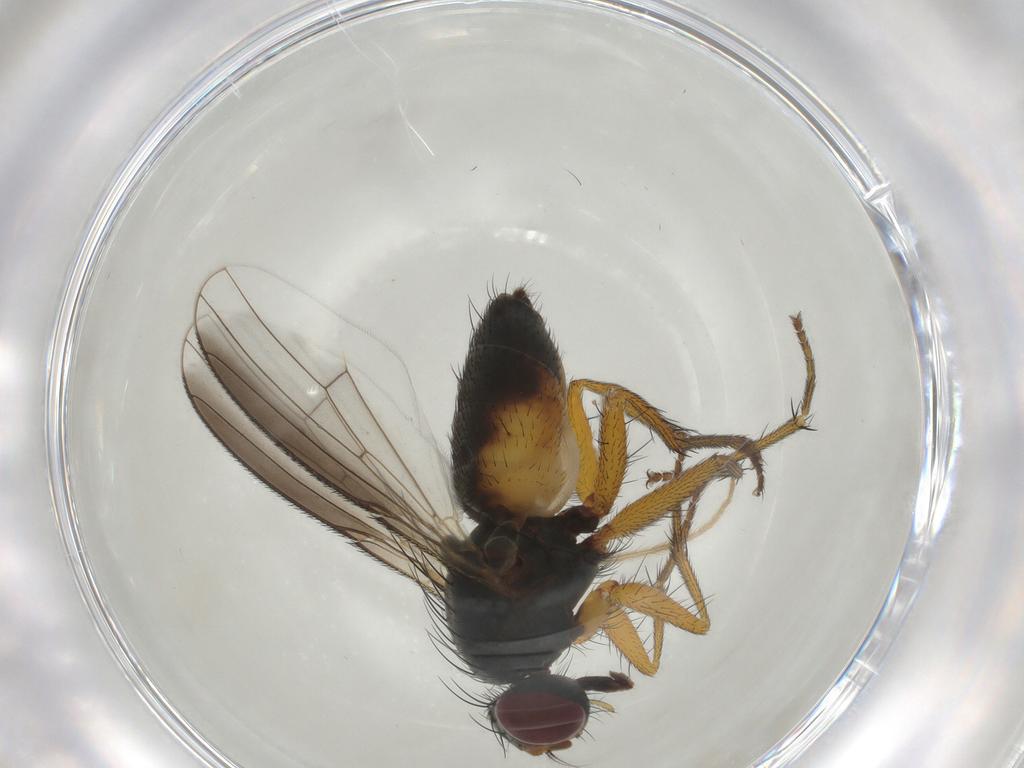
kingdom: Animalia
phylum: Arthropoda
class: Insecta
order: Diptera
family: Muscidae
